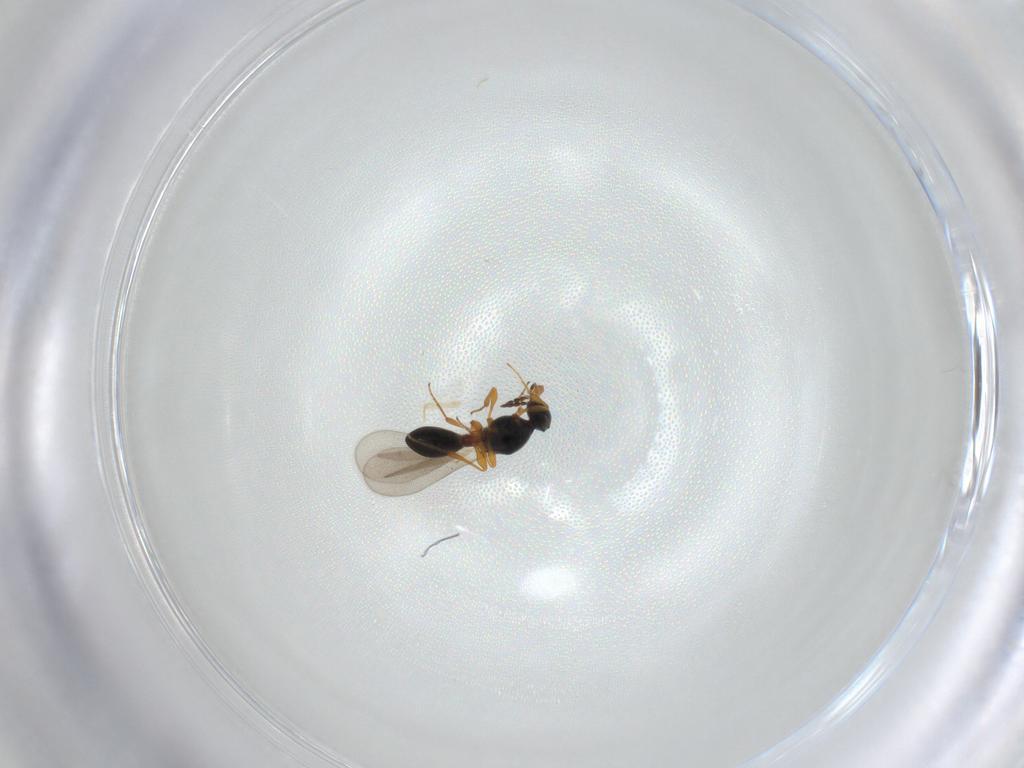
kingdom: Animalia
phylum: Arthropoda
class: Insecta
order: Hymenoptera
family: Platygastridae
